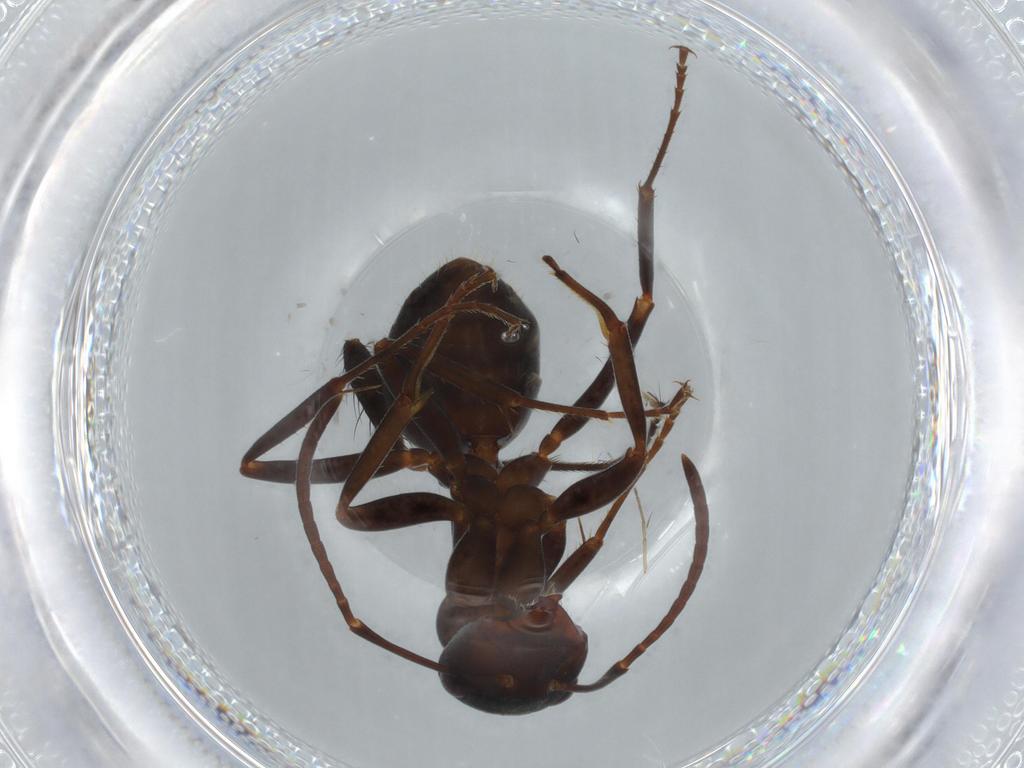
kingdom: Animalia
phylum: Arthropoda
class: Insecta
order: Hymenoptera
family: Formicidae
